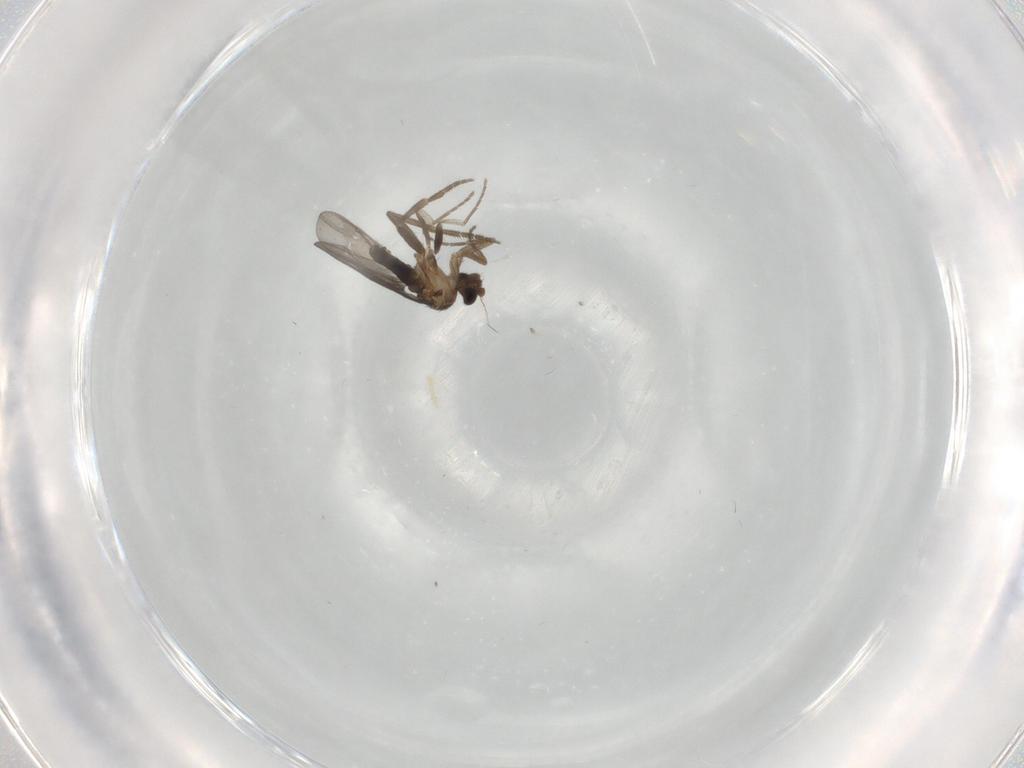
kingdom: Animalia
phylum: Arthropoda
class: Insecta
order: Diptera
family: Phoridae
